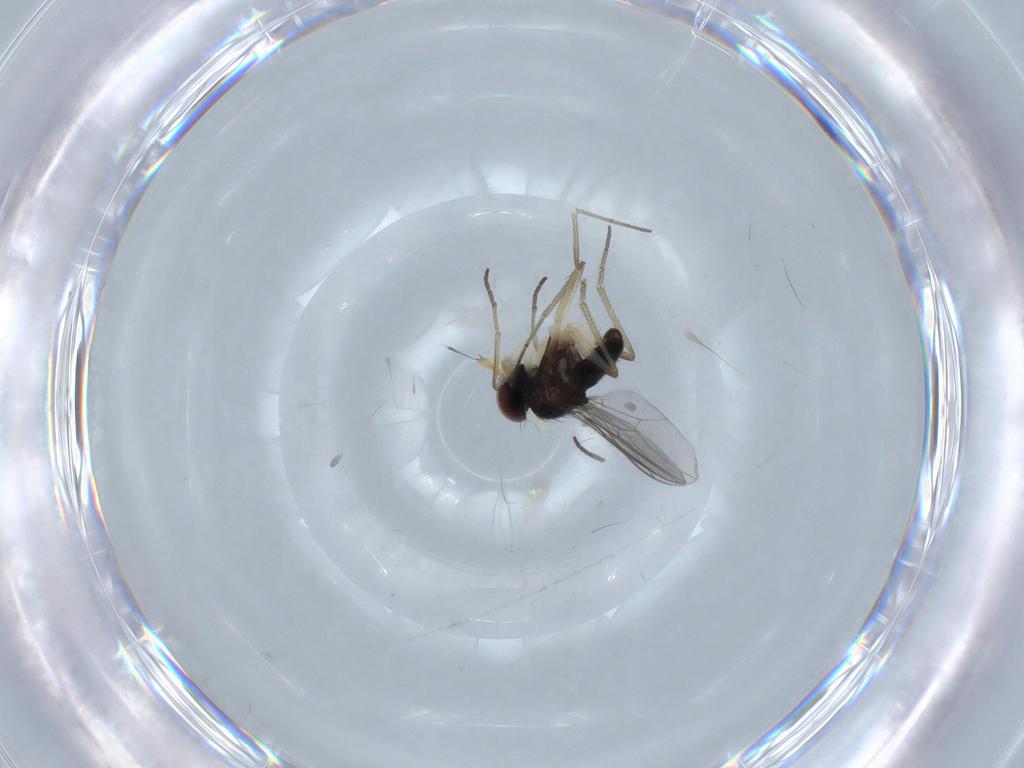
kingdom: Animalia
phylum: Arthropoda
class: Insecta
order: Diptera
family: Dolichopodidae
